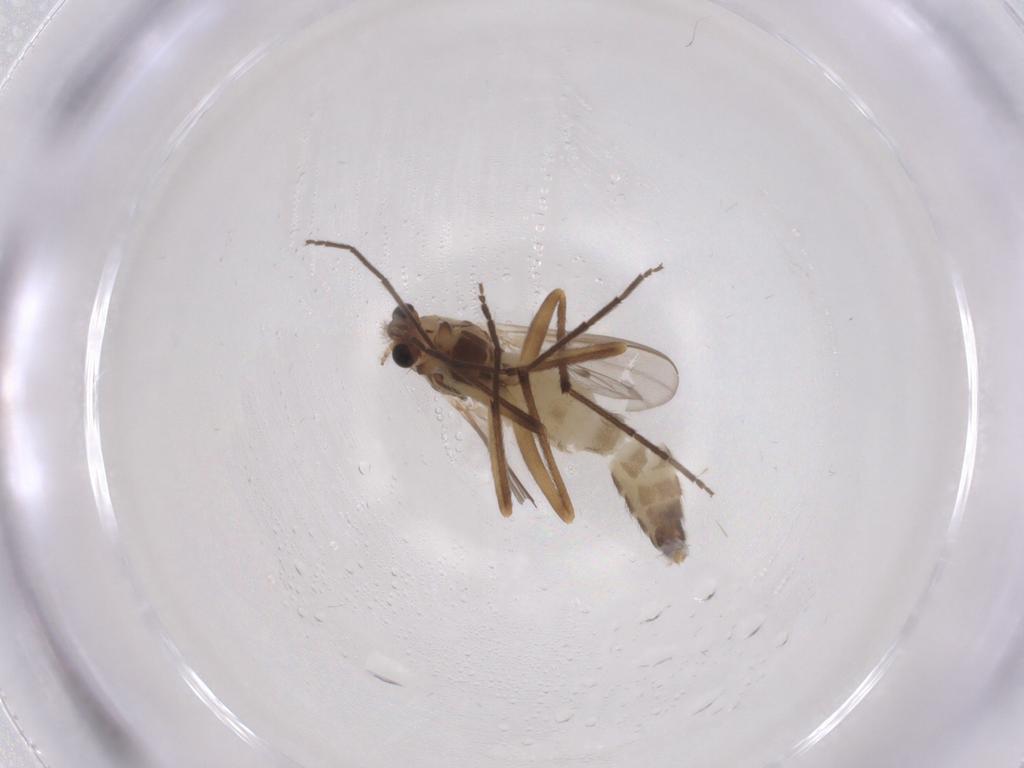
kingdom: Animalia
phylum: Arthropoda
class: Insecta
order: Diptera
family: Chironomidae
